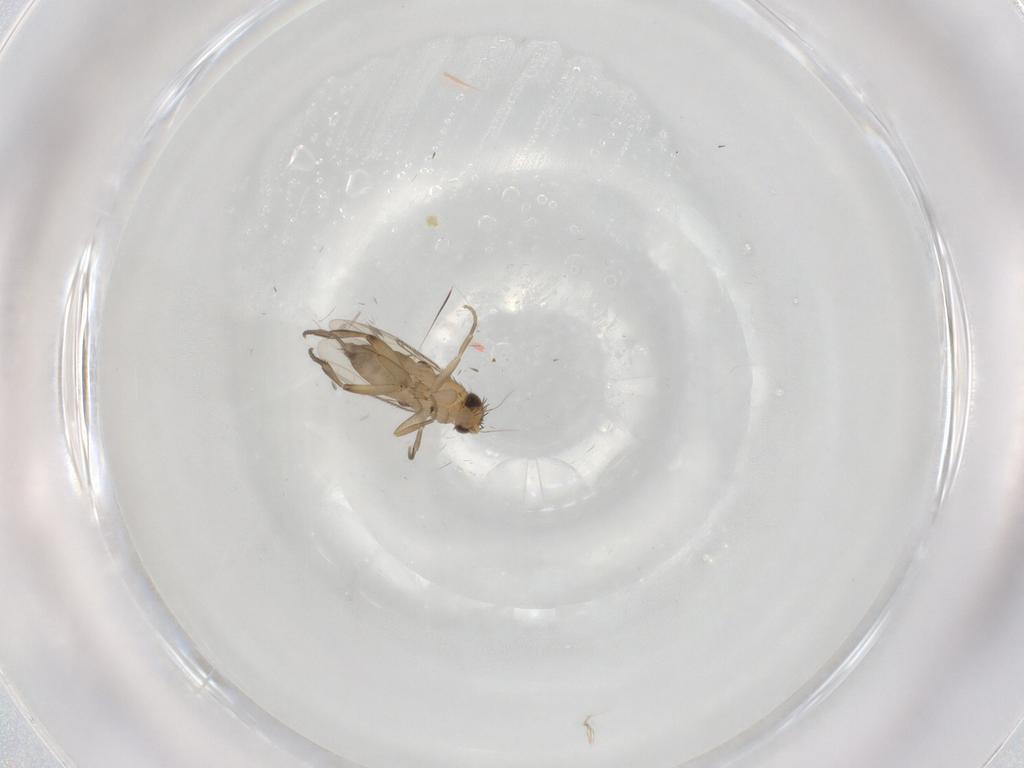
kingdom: Animalia
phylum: Arthropoda
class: Insecta
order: Diptera
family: Phoridae
